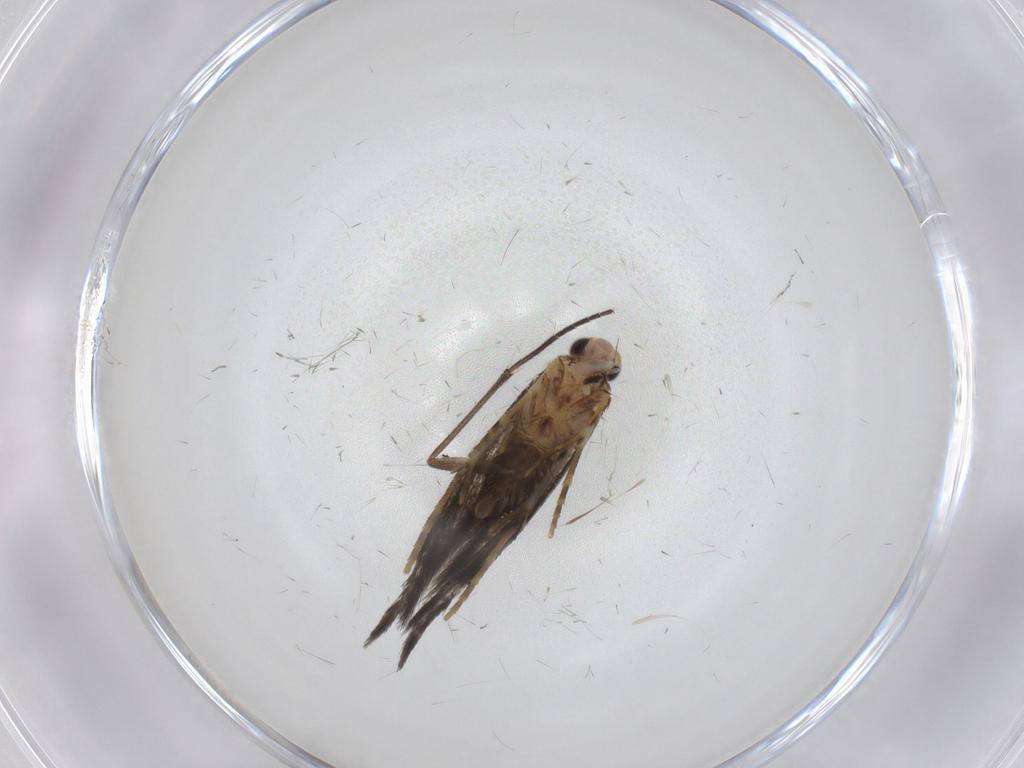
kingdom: Animalia
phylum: Arthropoda
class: Insecta
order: Lepidoptera
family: Tineidae
